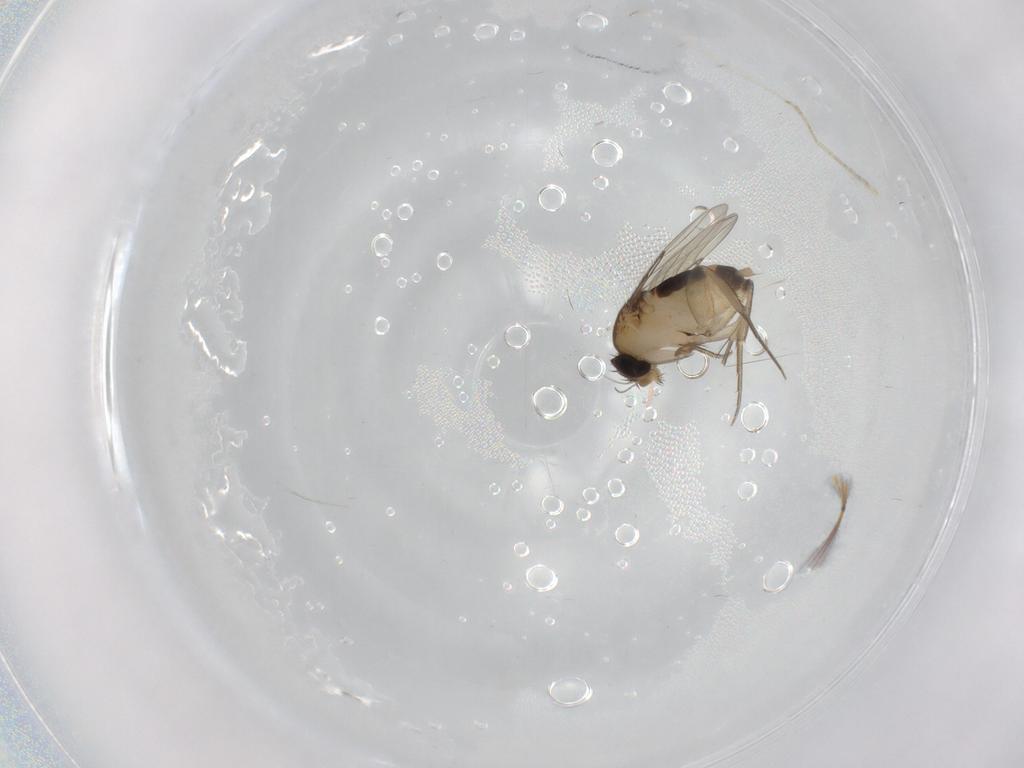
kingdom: Animalia
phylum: Arthropoda
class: Insecta
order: Diptera
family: Phoridae
